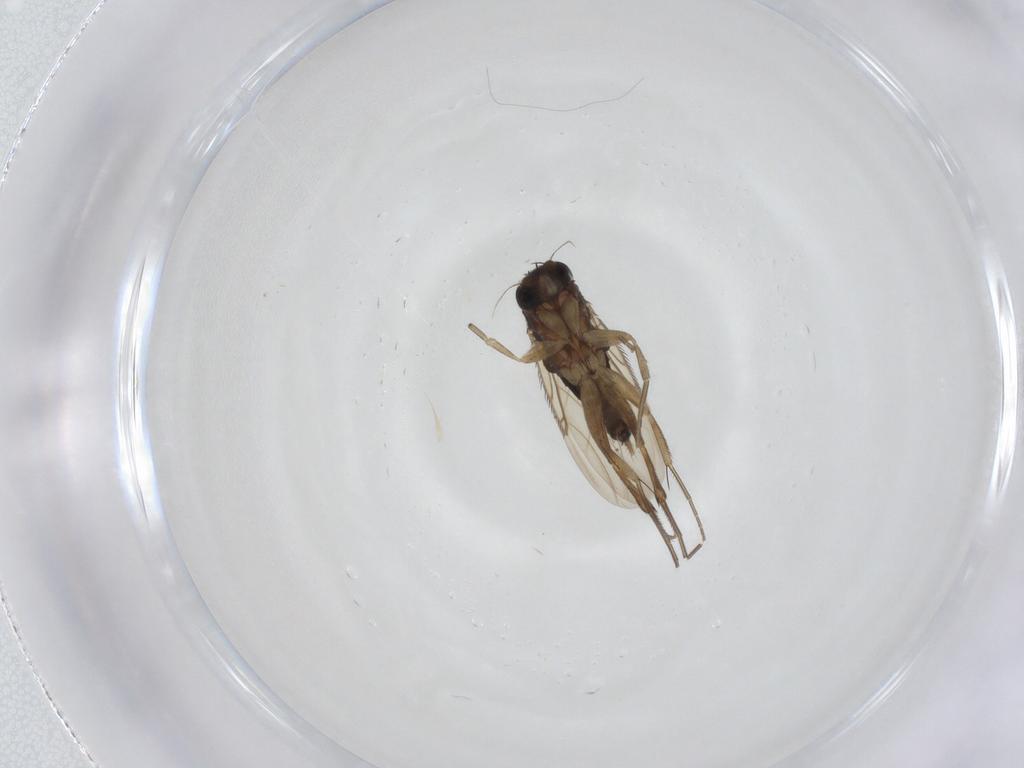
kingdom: Animalia
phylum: Arthropoda
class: Insecta
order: Diptera
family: Phoridae
